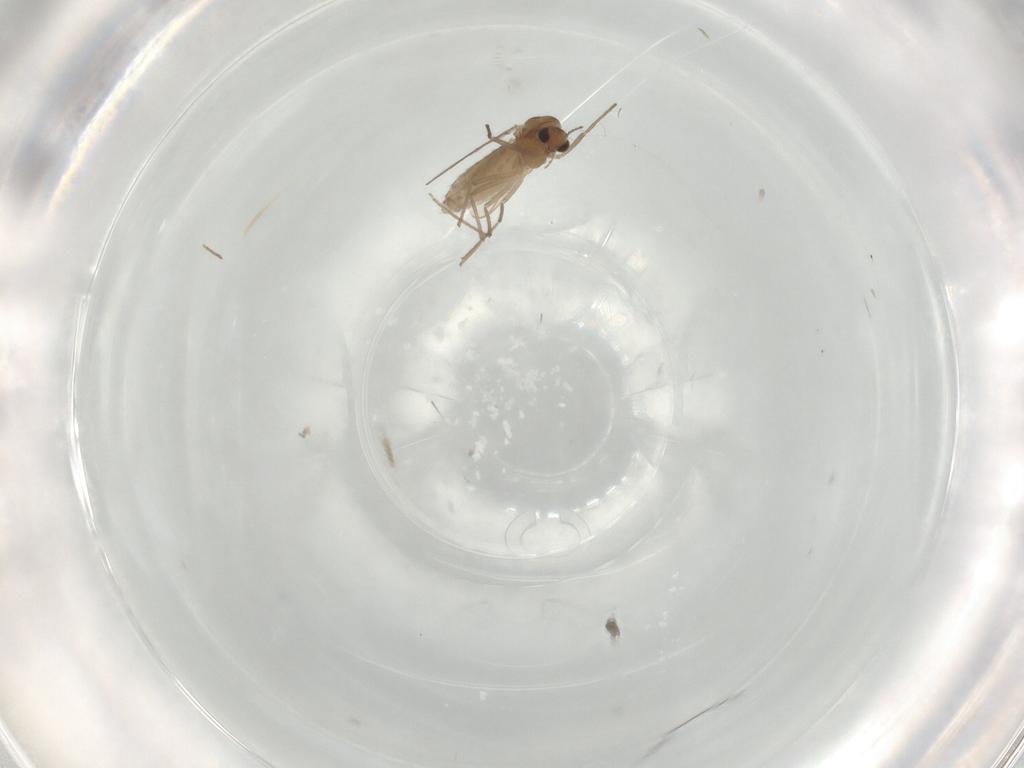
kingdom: Animalia
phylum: Arthropoda
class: Insecta
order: Diptera
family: Chironomidae
